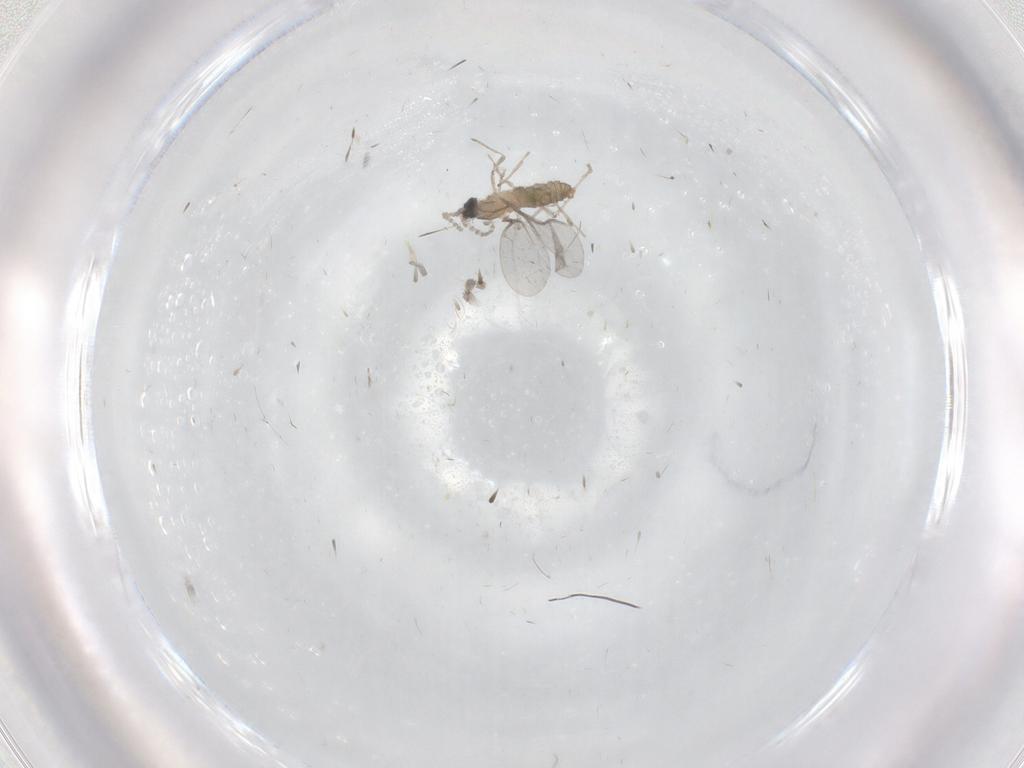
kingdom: Animalia
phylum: Arthropoda
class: Insecta
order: Diptera
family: Cecidomyiidae
